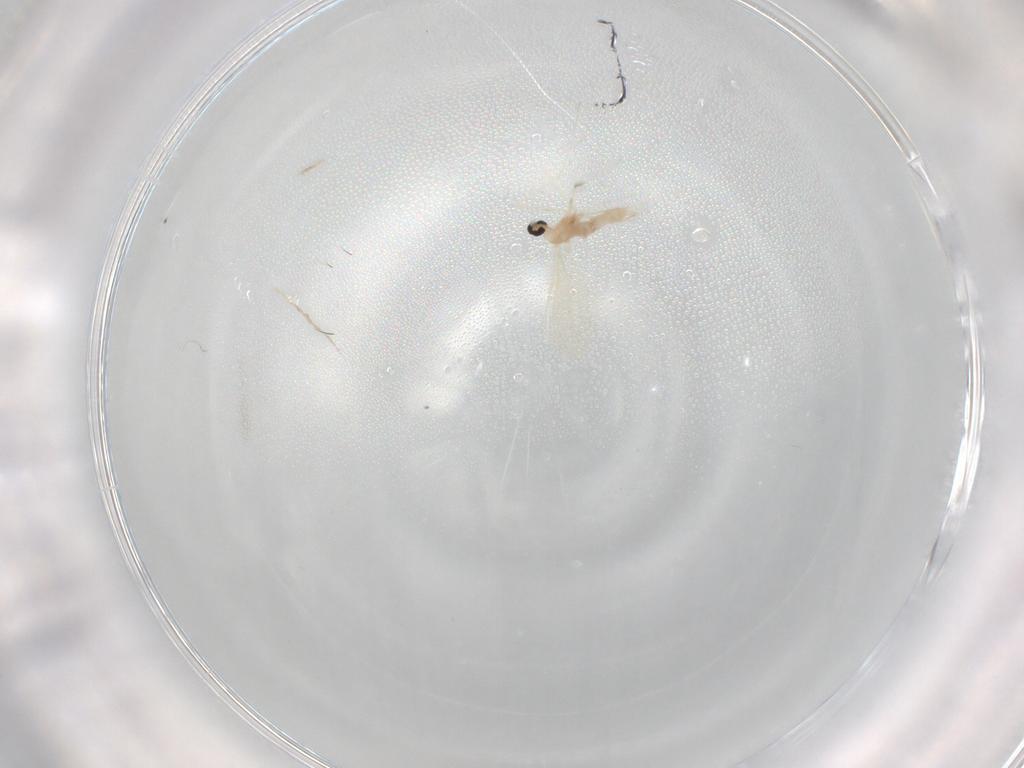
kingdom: Animalia
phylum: Arthropoda
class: Insecta
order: Diptera
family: Cecidomyiidae
